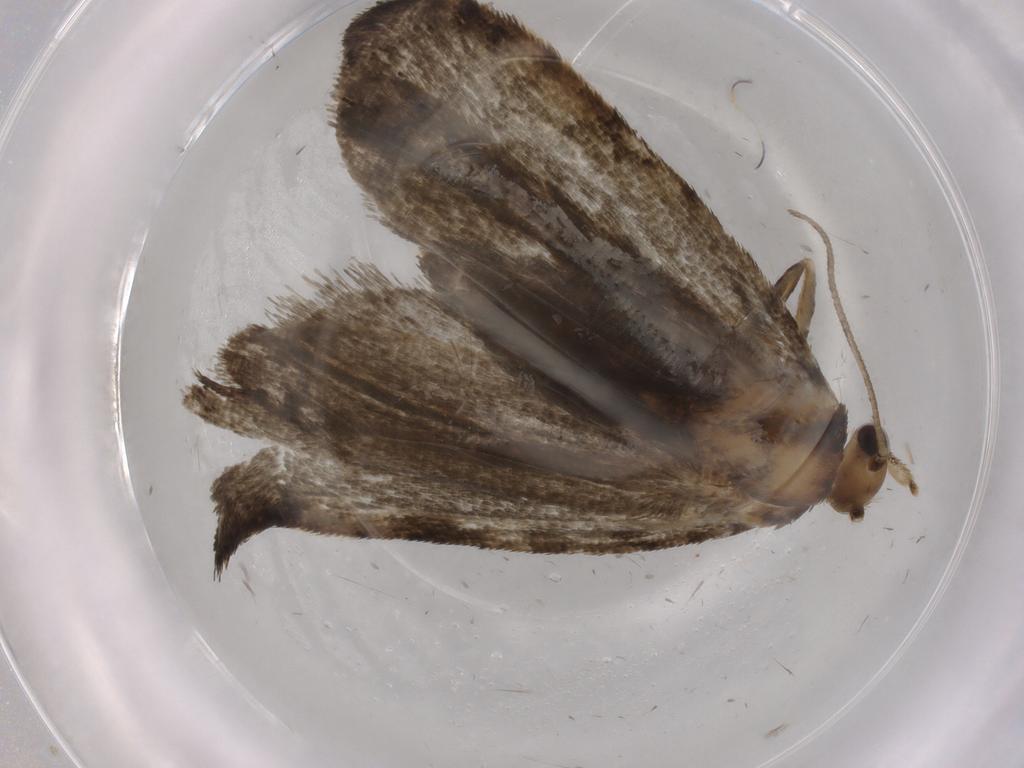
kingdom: Animalia
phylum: Arthropoda
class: Insecta
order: Lepidoptera
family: Tortricidae
